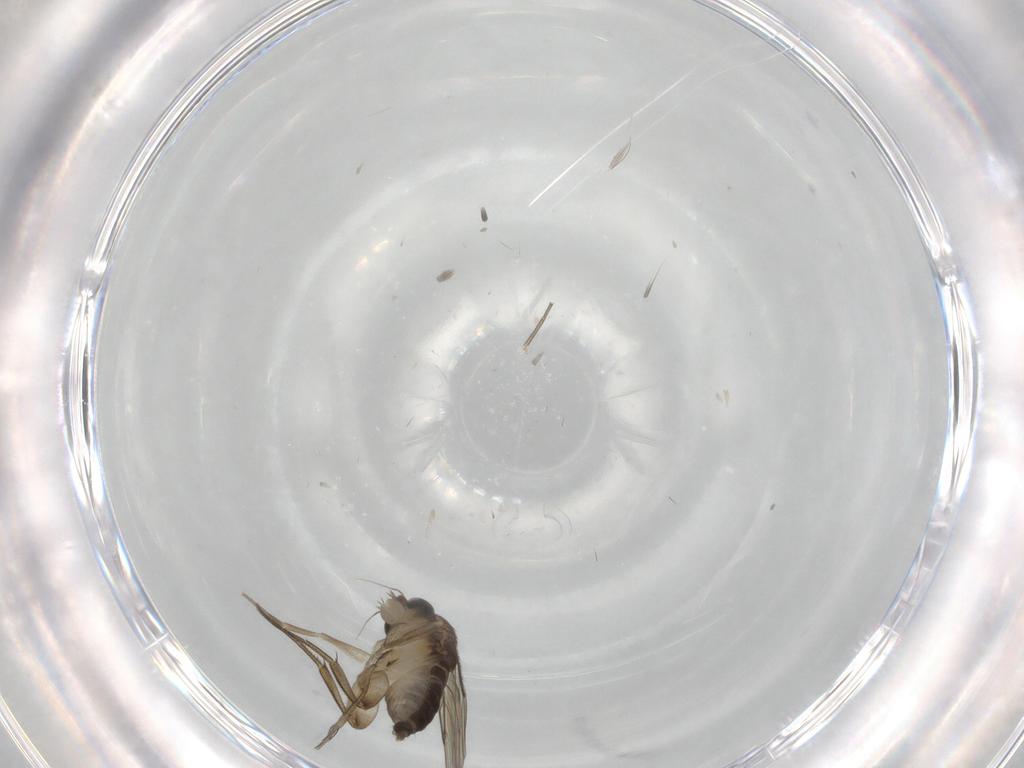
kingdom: Animalia
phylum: Arthropoda
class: Insecta
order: Diptera
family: Phoridae
